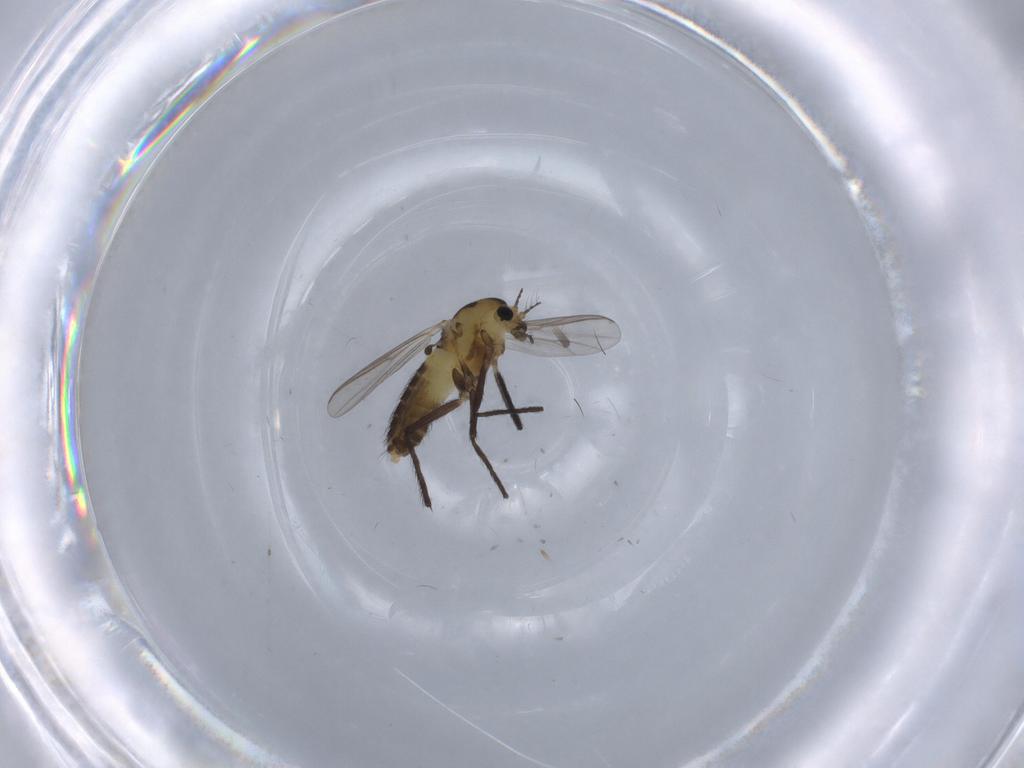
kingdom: Animalia
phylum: Arthropoda
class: Insecta
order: Diptera
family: Chironomidae
